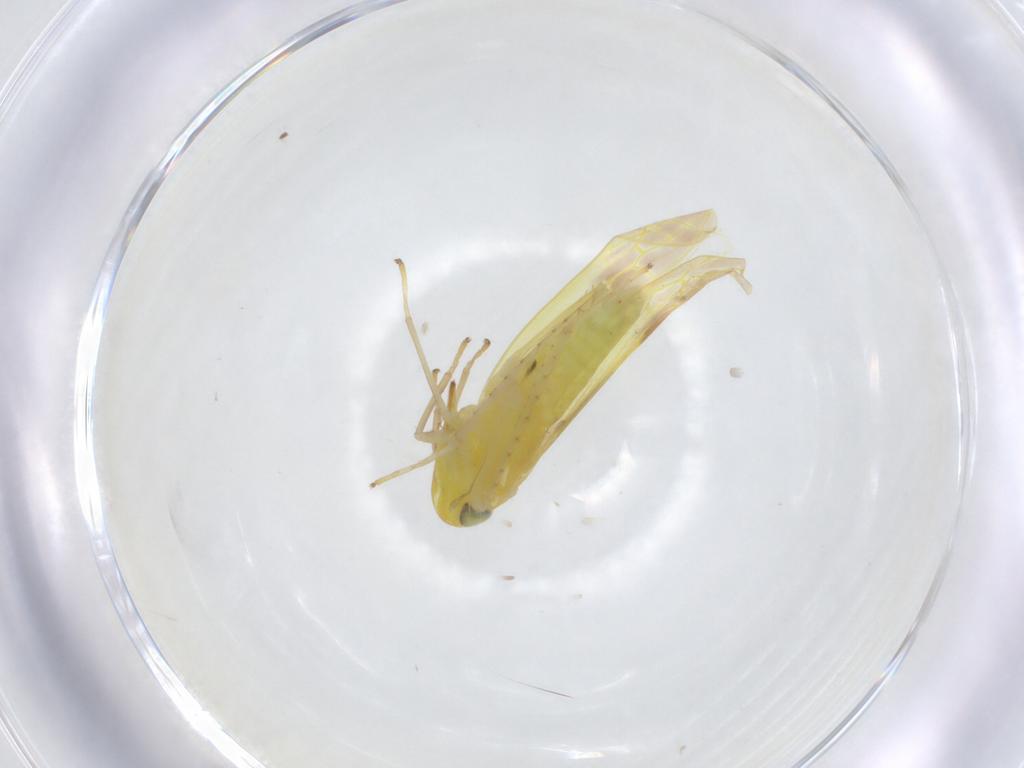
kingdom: Animalia
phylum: Arthropoda
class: Insecta
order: Hemiptera
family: Cicadellidae
